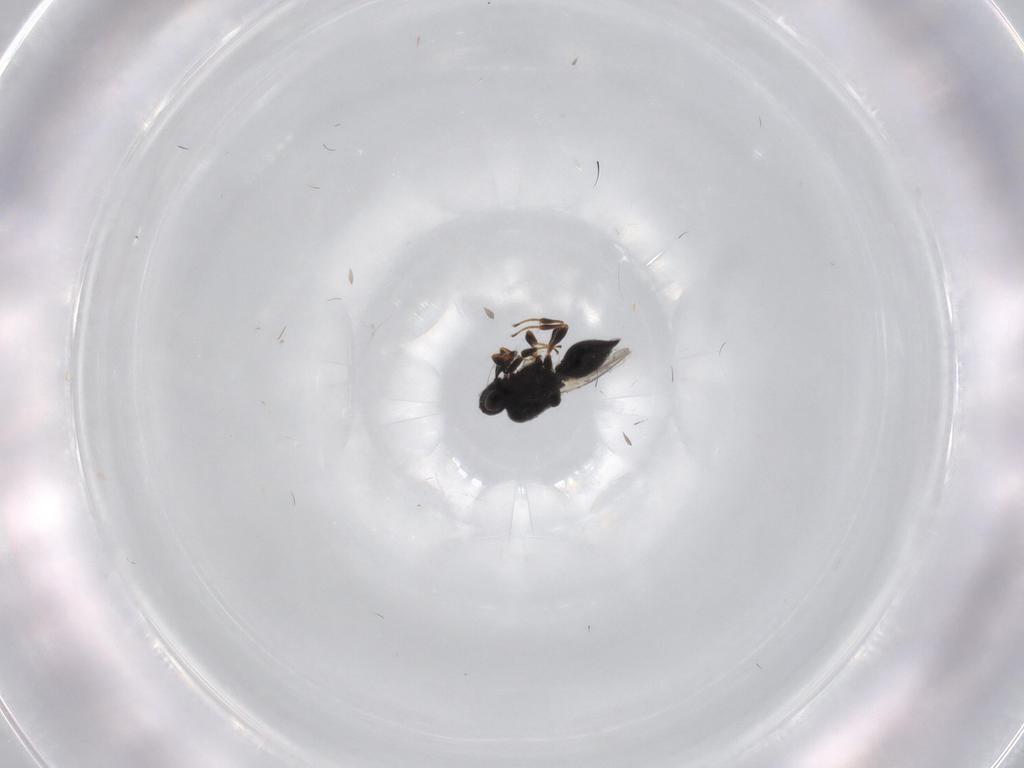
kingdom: Animalia
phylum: Arthropoda
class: Insecta
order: Hymenoptera
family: Platygastridae
